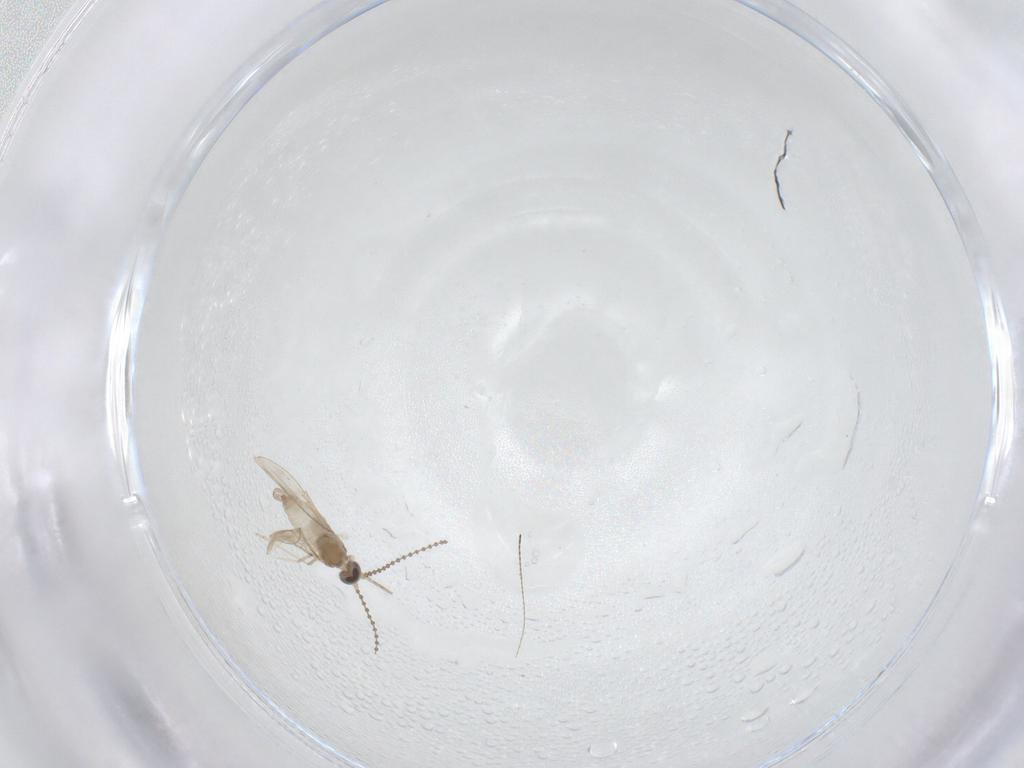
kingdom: Animalia
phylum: Arthropoda
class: Insecta
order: Diptera
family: Cecidomyiidae
